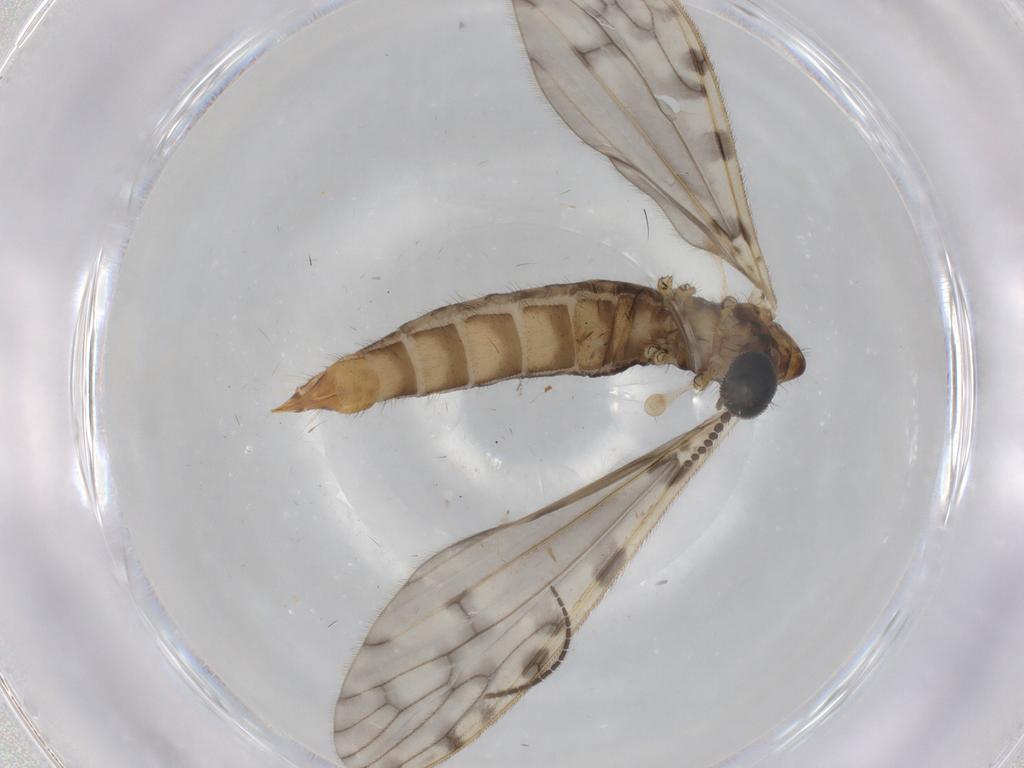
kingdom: Animalia
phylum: Arthropoda
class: Insecta
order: Diptera
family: Limoniidae
